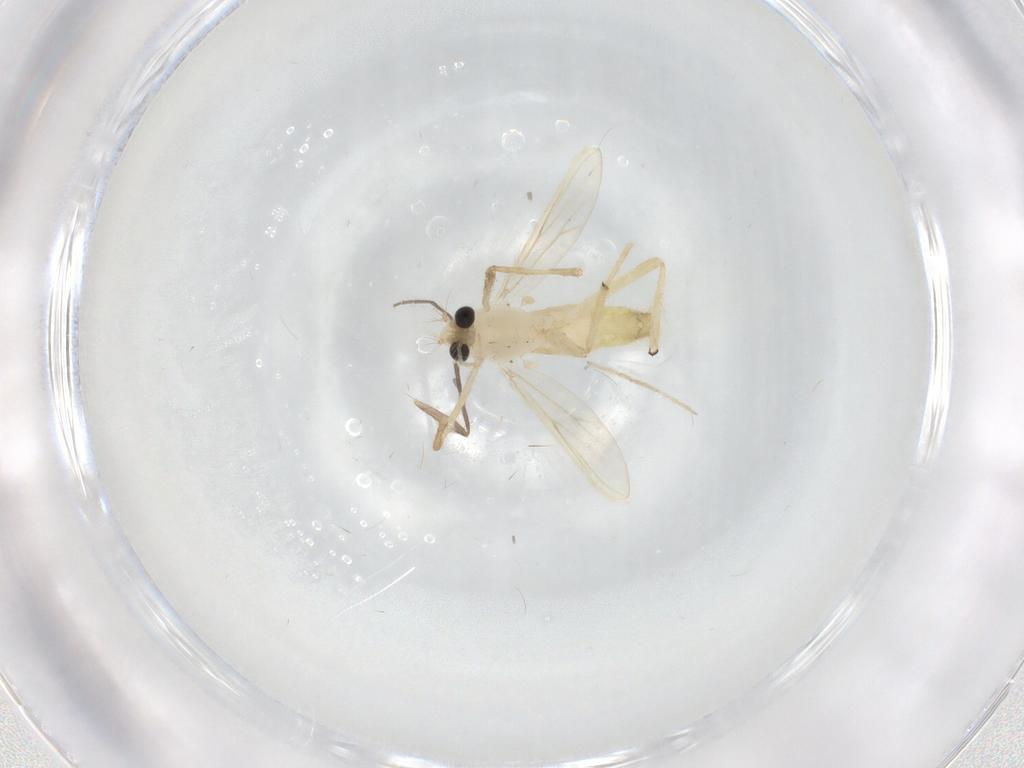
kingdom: Animalia
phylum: Arthropoda
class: Insecta
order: Diptera
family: Chironomidae
